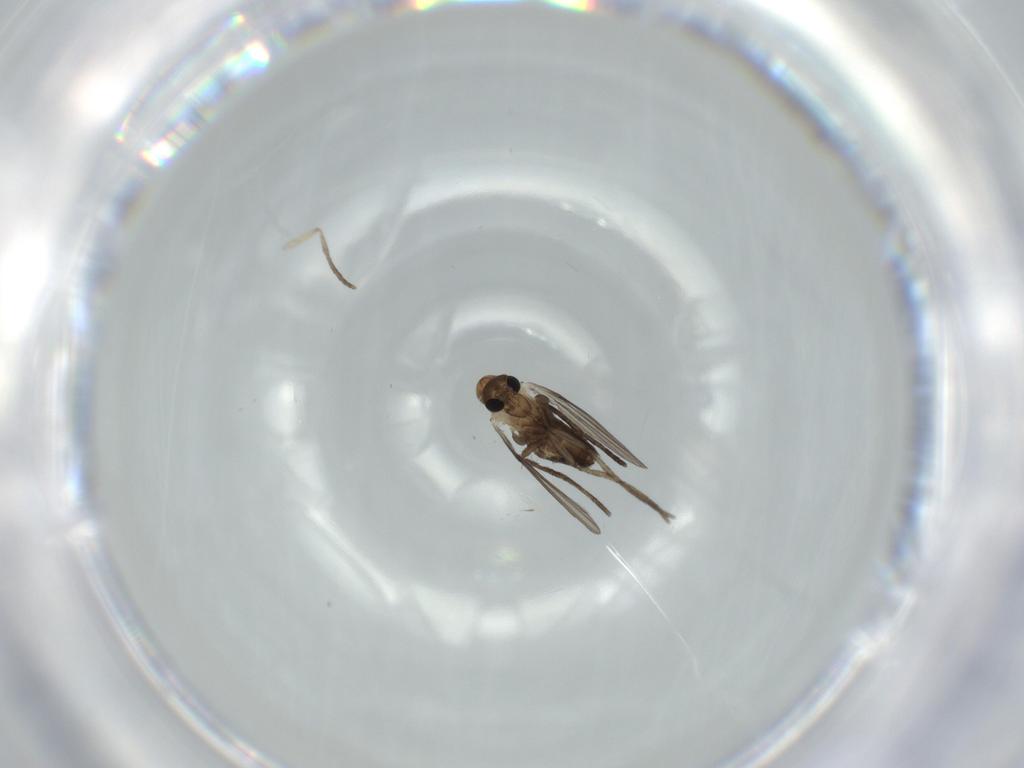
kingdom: Animalia
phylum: Arthropoda
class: Insecta
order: Diptera
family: Psychodidae
